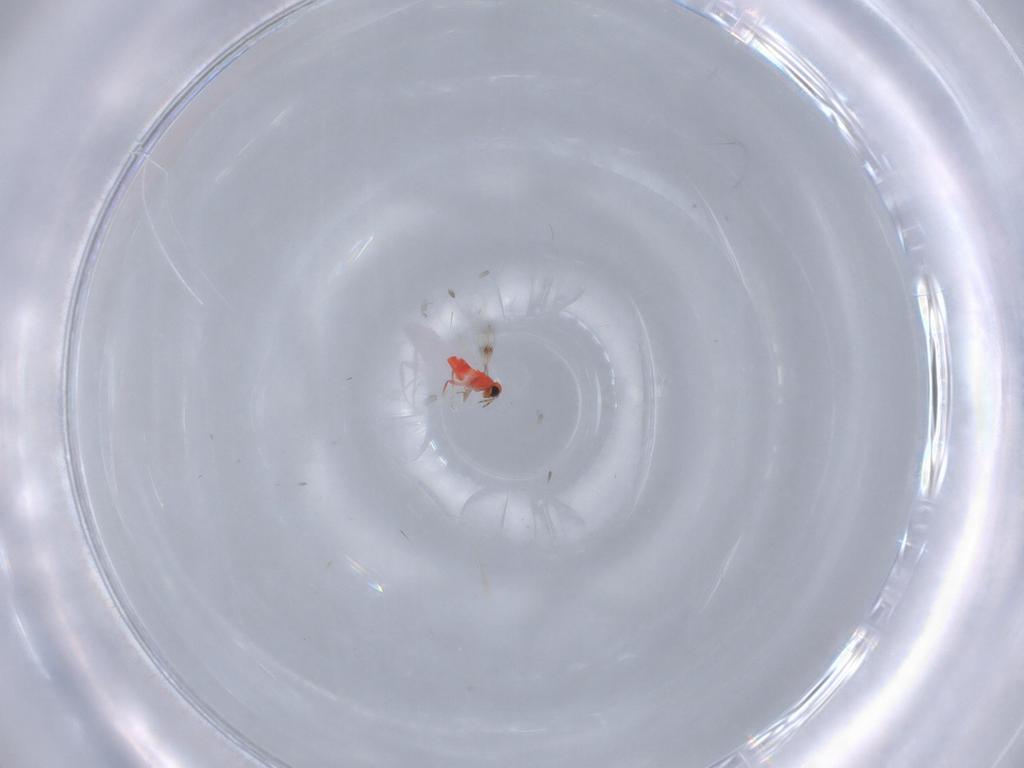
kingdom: Animalia
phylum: Arthropoda
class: Insecta
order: Hymenoptera
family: Trichogrammatidae
